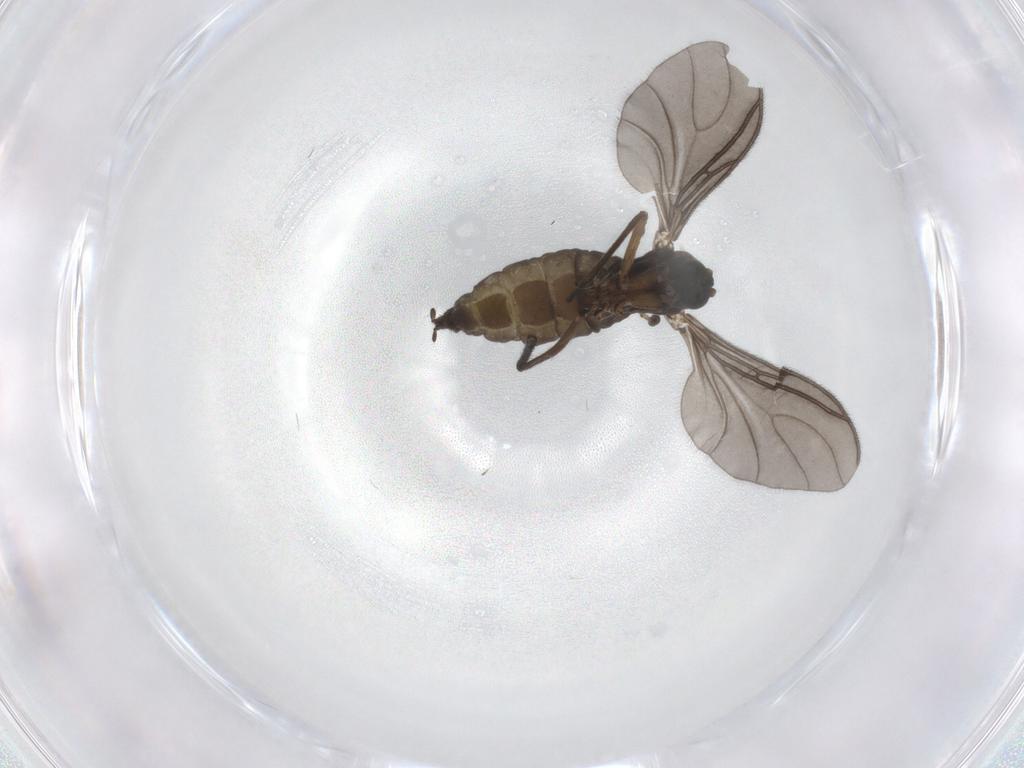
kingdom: Animalia
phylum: Arthropoda
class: Insecta
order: Diptera
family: Sciaridae
